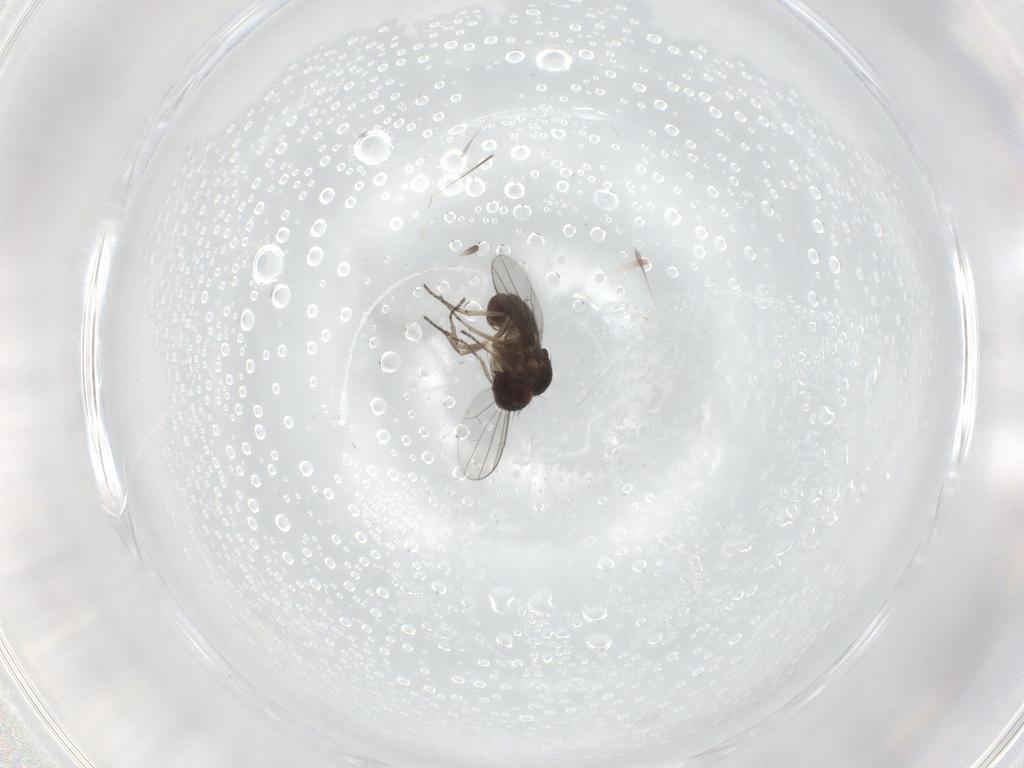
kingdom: Animalia
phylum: Arthropoda
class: Insecta
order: Diptera
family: Dolichopodidae
